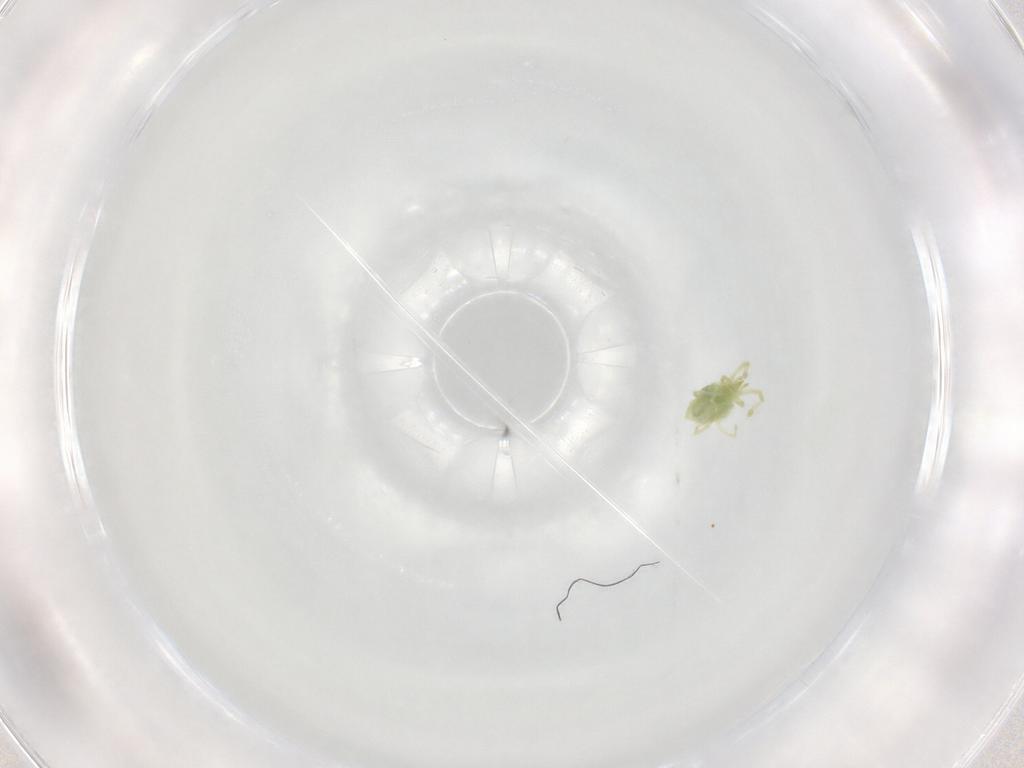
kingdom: Animalia
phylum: Arthropoda
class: Arachnida
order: Trombidiformes
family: Anystidae
